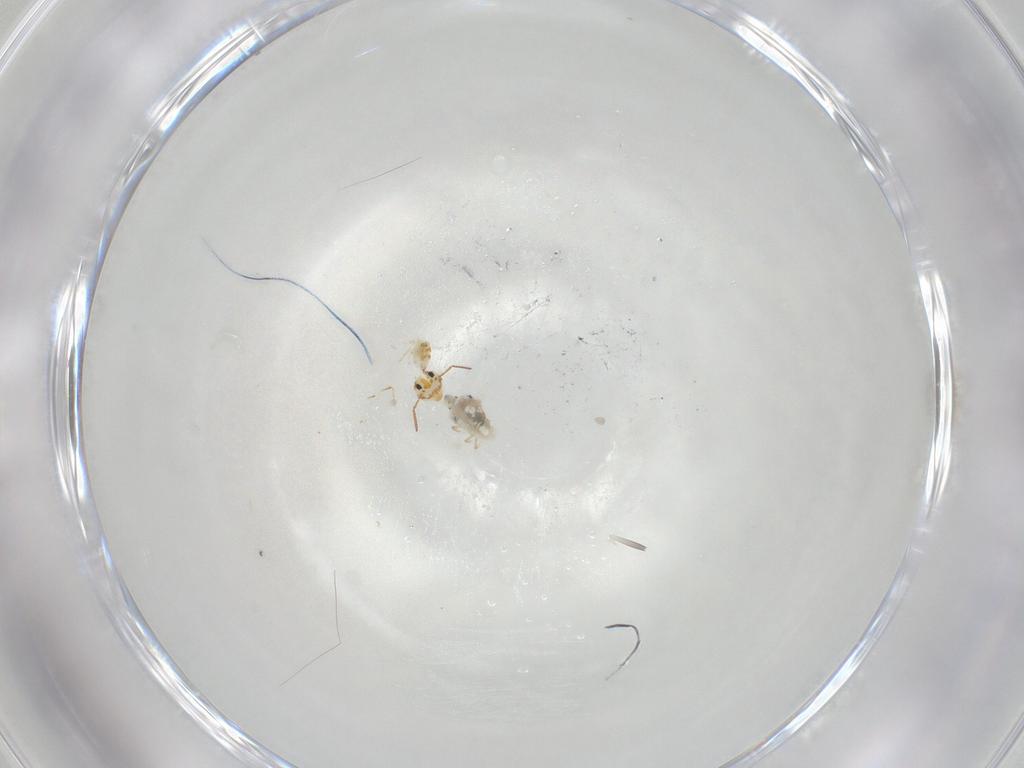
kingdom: Animalia
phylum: Arthropoda
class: Collembola
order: Symphypleona
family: Bourletiellidae
